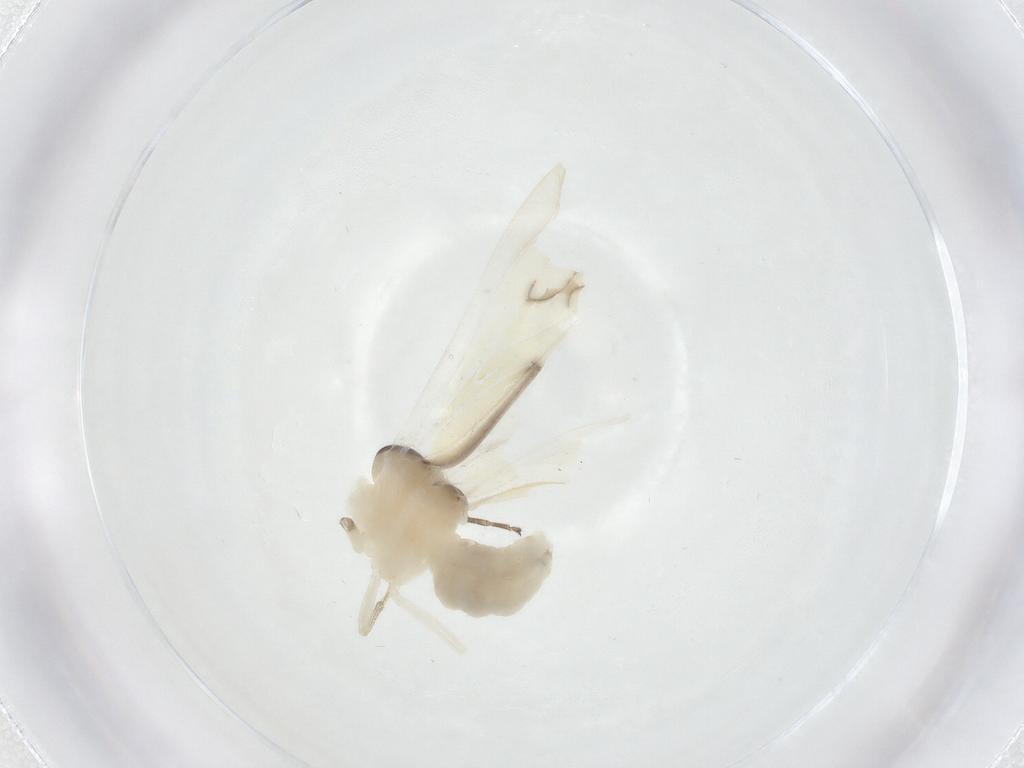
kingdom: Animalia
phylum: Arthropoda
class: Insecta
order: Psocodea
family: Caeciliusidae
